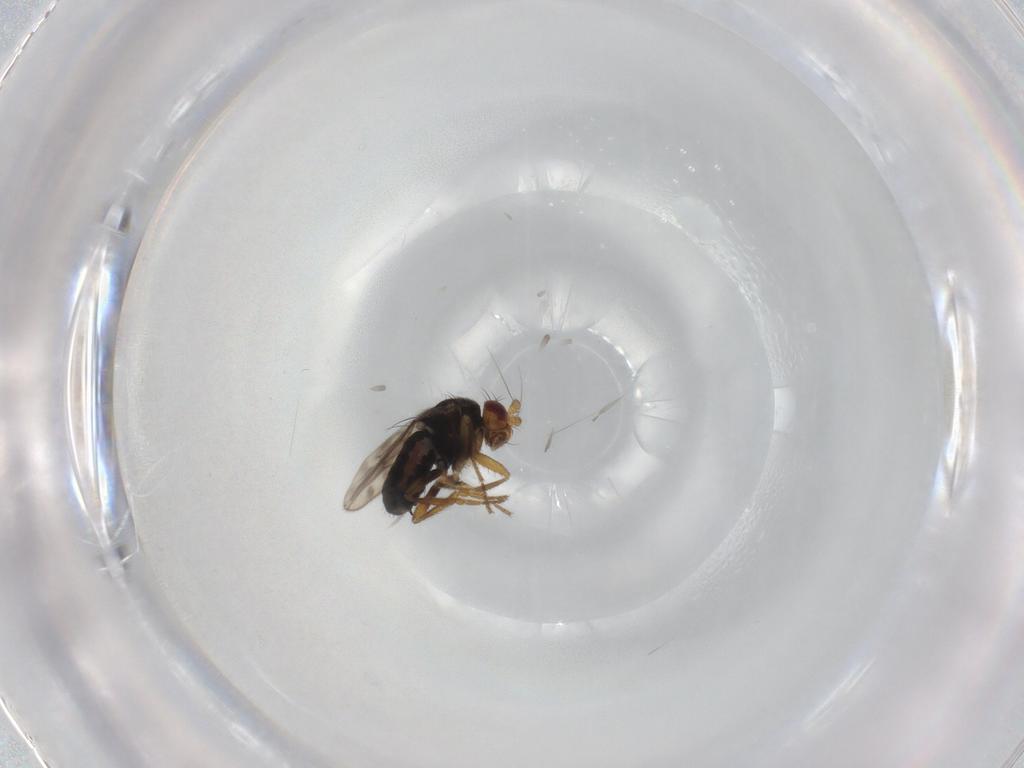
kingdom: Animalia
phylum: Arthropoda
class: Insecta
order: Diptera
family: Sphaeroceridae
